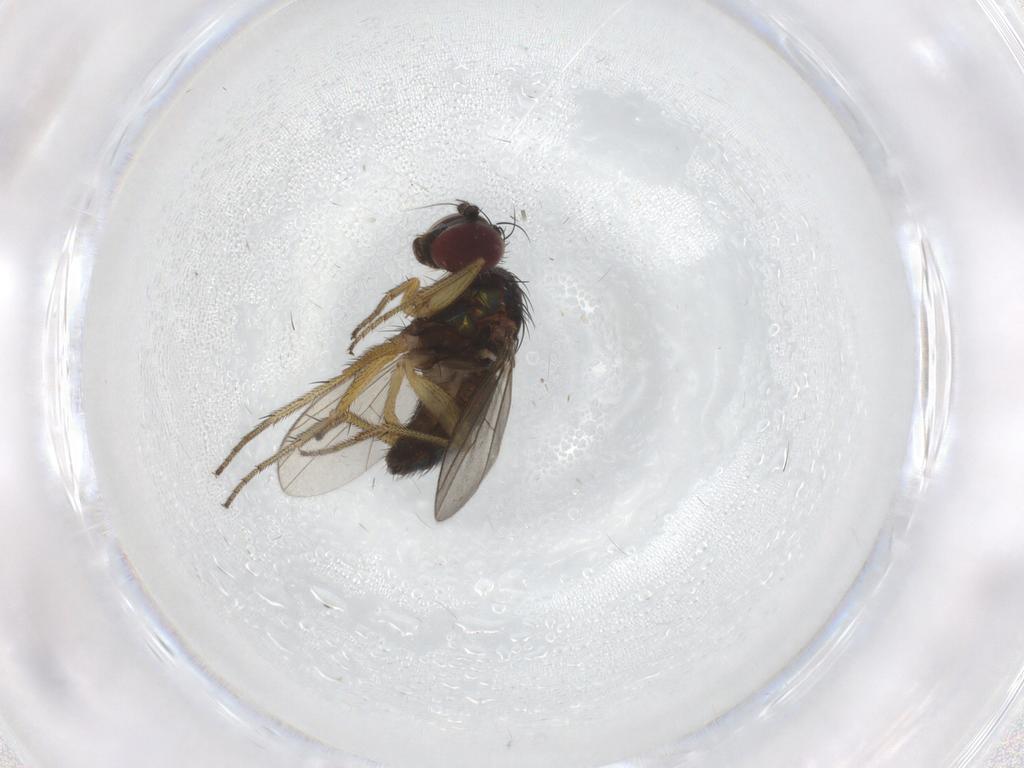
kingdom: Animalia
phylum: Arthropoda
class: Insecta
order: Diptera
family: Dolichopodidae
